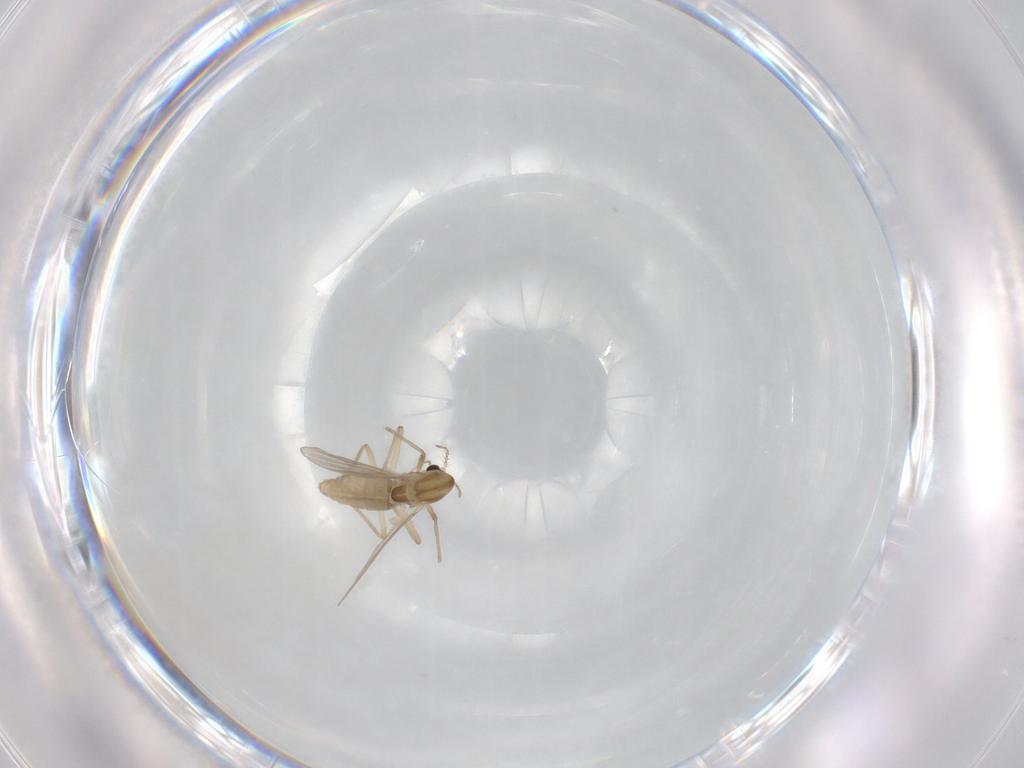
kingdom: Animalia
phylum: Arthropoda
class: Insecta
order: Diptera
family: Chironomidae
